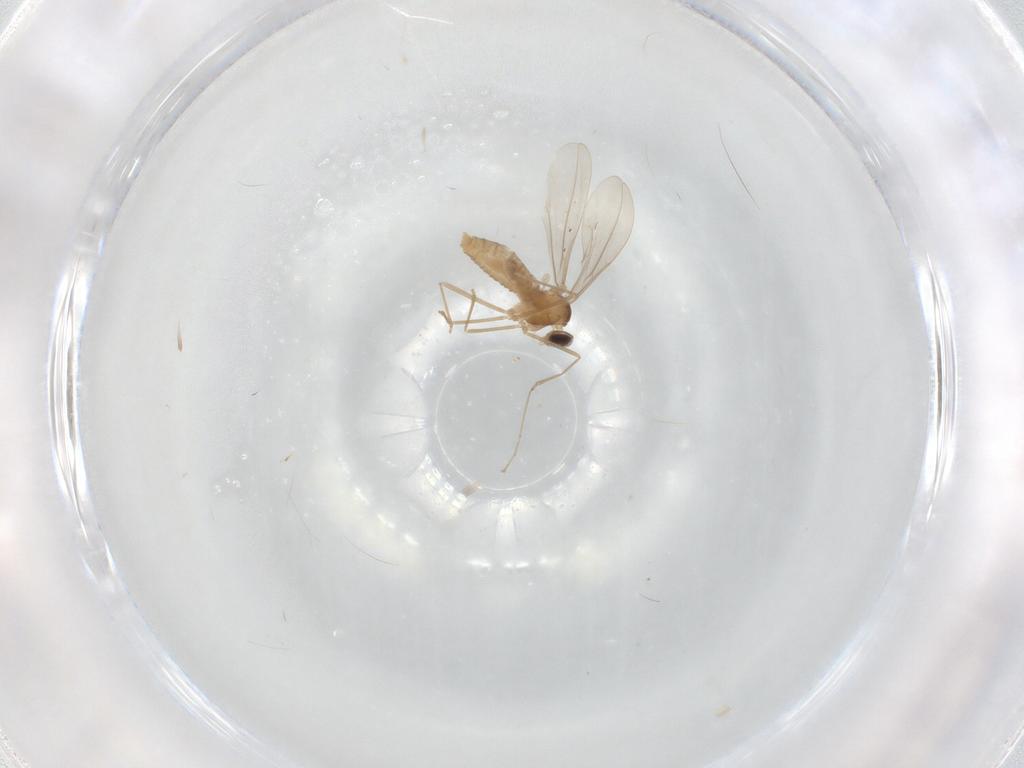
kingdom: Animalia
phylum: Arthropoda
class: Insecta
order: Diptera
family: Cecidomyiidae
